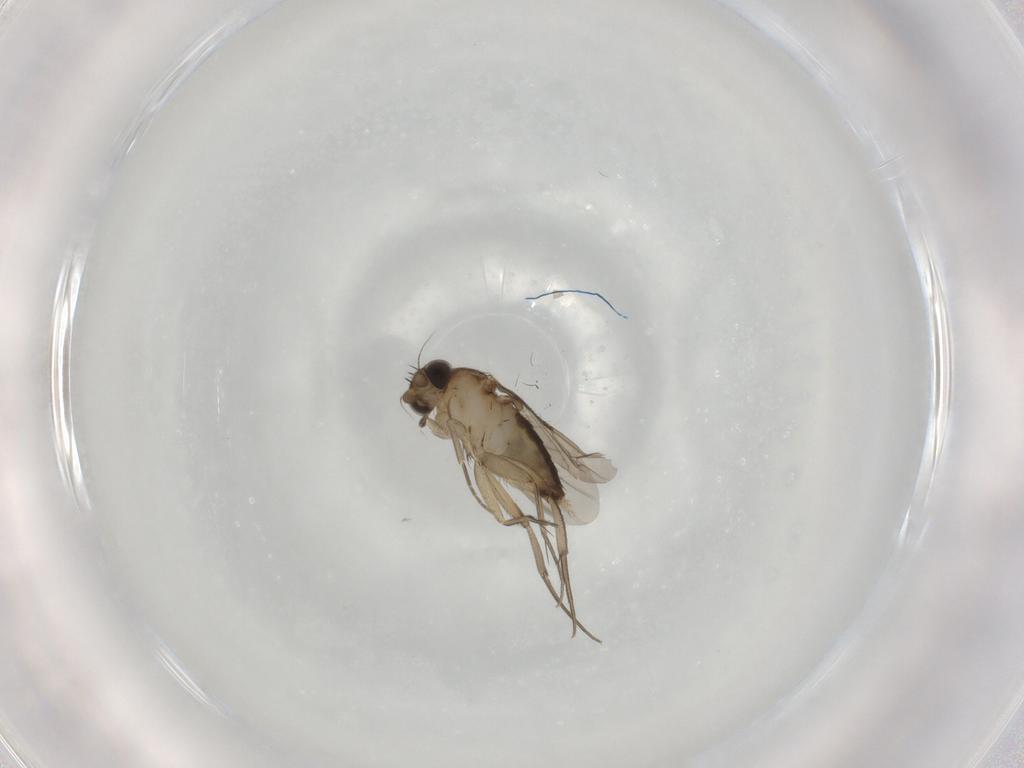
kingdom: Animalia
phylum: Arthropoda
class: Insecta
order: Diptera
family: Phoridae
